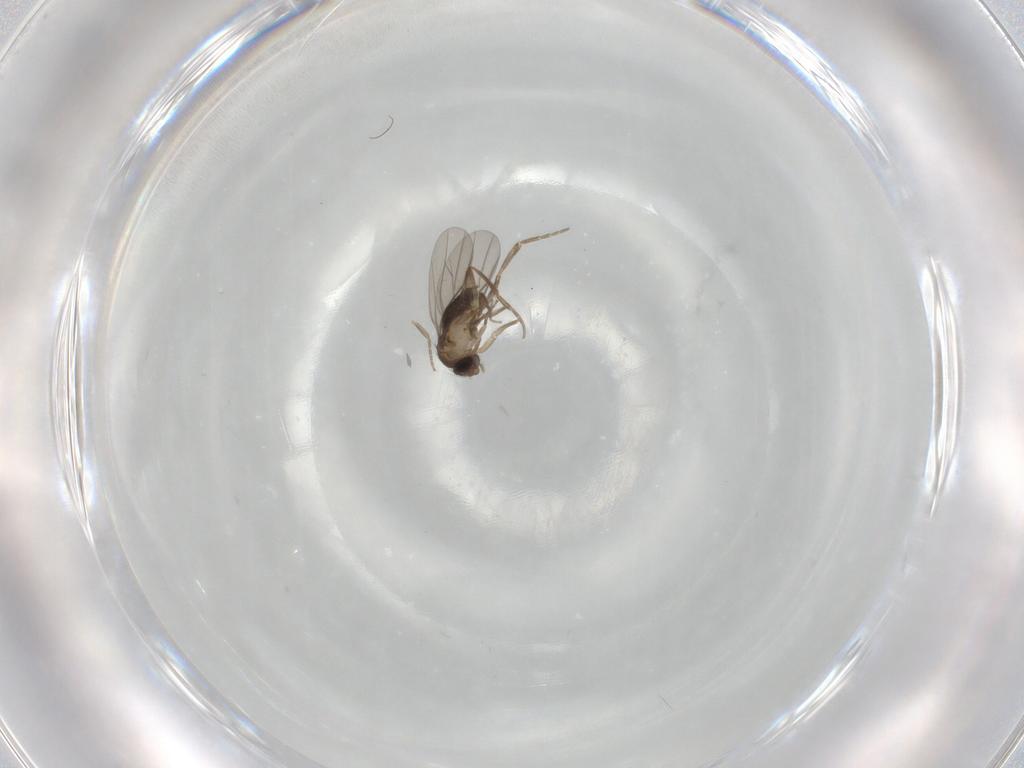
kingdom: Animalia
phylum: Arthropoda
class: Insecta
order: Diptera
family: Phoridae
